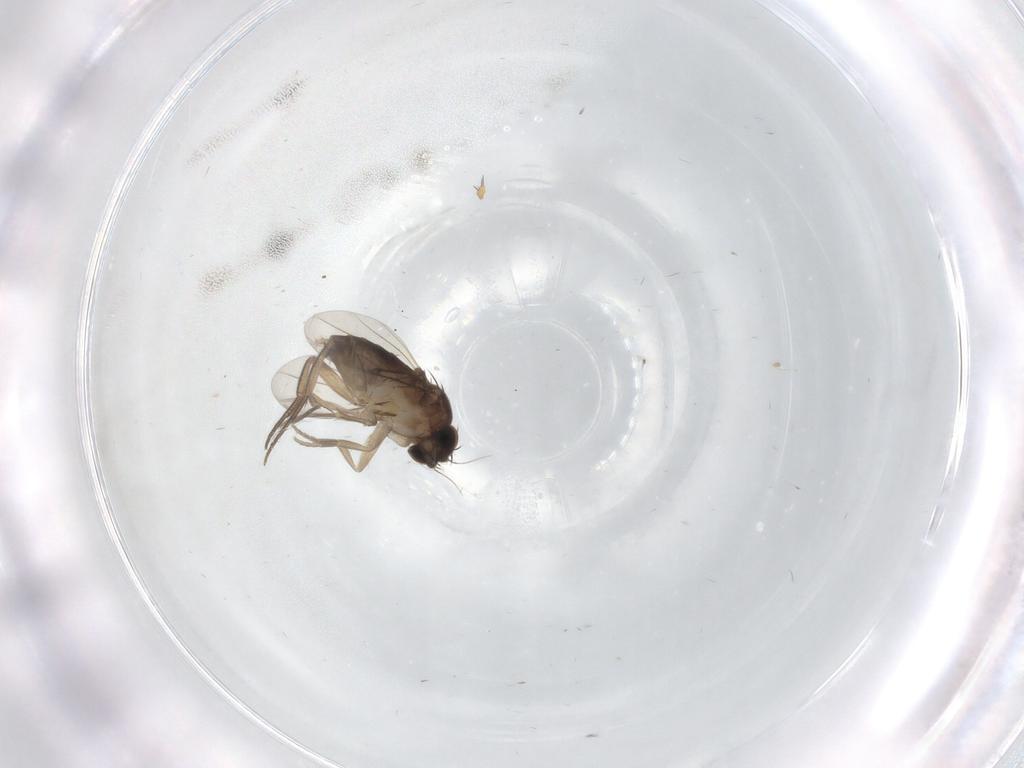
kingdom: Animalia
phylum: Arthropoda
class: Insecta
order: Diptera
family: Phoridae
